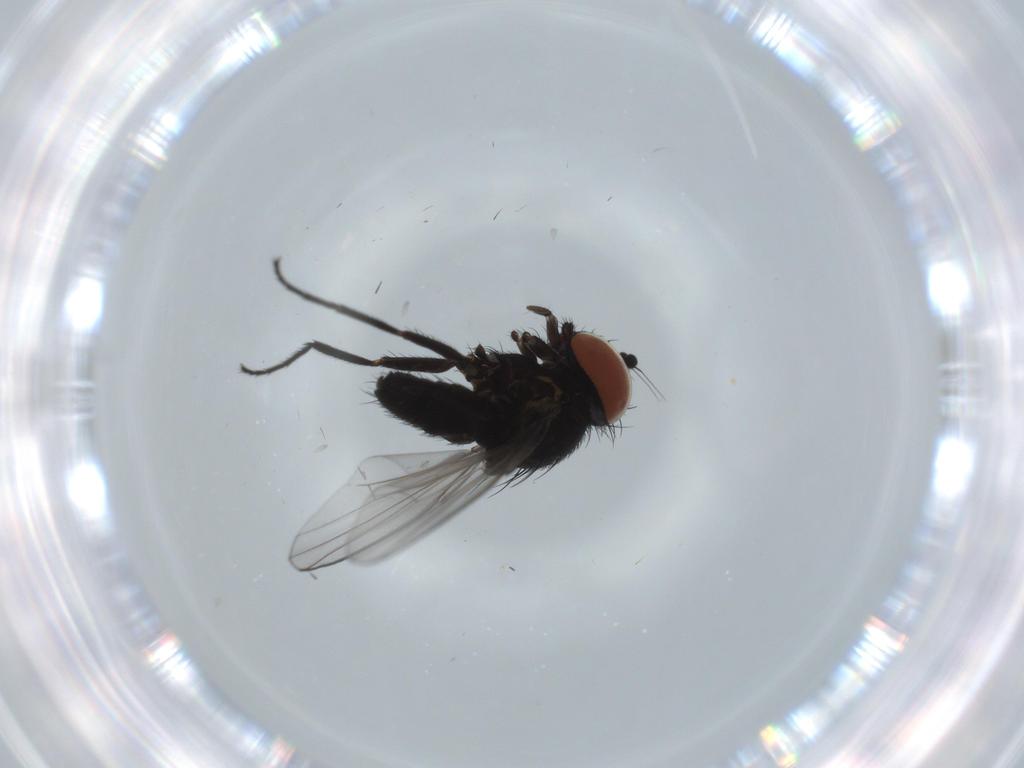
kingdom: Animalia
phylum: Arthropoda
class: Insecta
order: Diptera
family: Milichiidae
